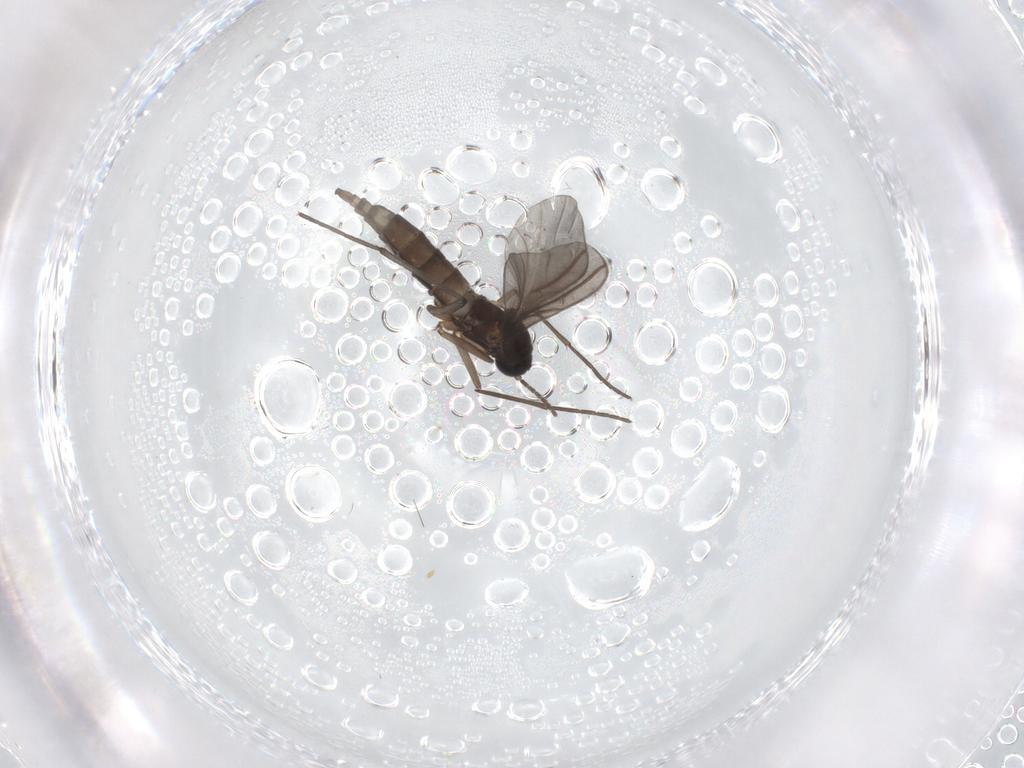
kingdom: Animalia
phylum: Arthropoda
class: Insecta
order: Diptera
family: Sciaridae
